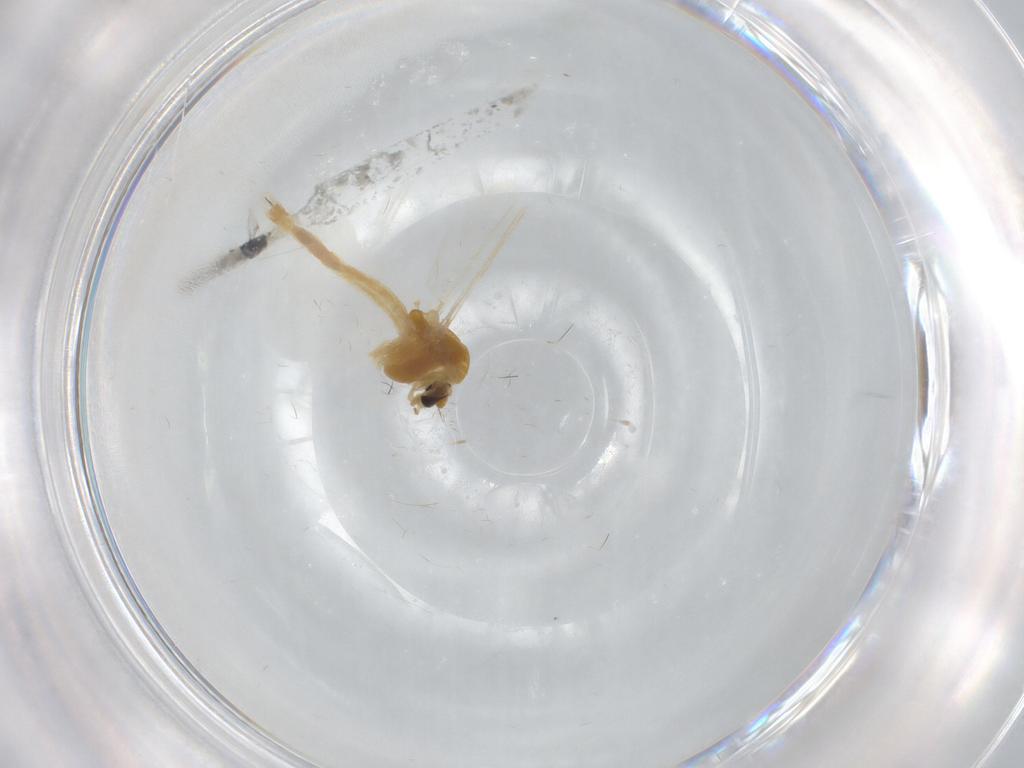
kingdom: Animalia
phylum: Arthropoda
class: Insecta
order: Diptera
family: Chironomidae
